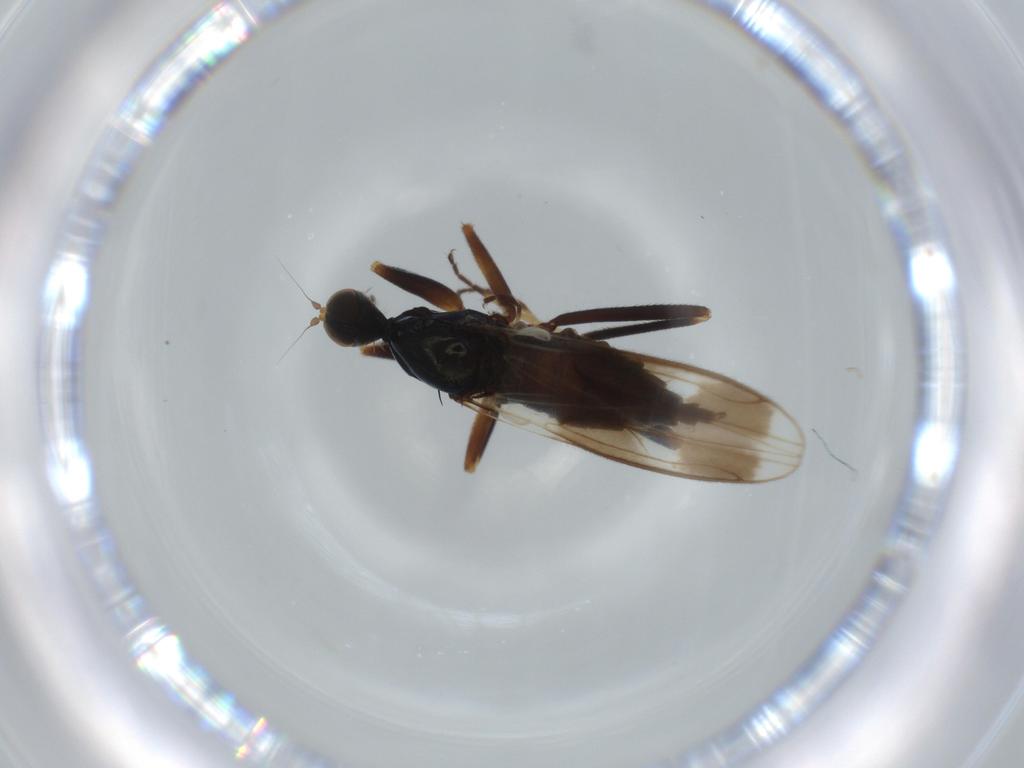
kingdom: Animalia
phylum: Arthropoda
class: Insecta
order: Diptera
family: Hybotidae
